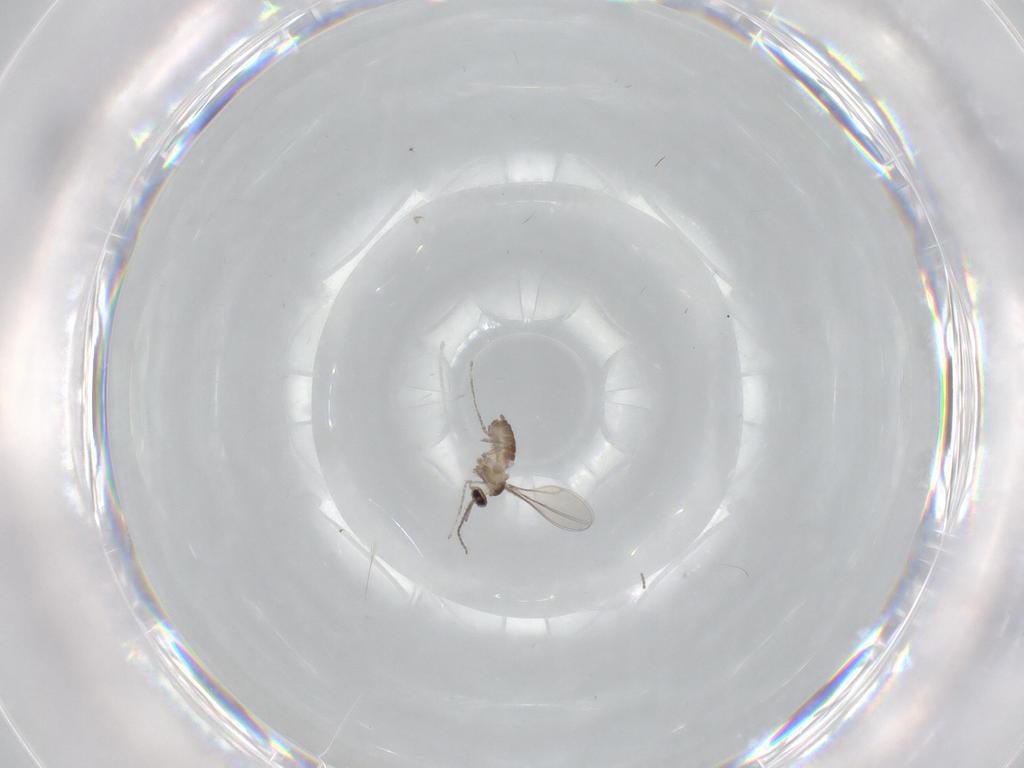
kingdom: Animalia
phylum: Arthropoda
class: Insecta
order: Diptera
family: Cecidomyiidae
